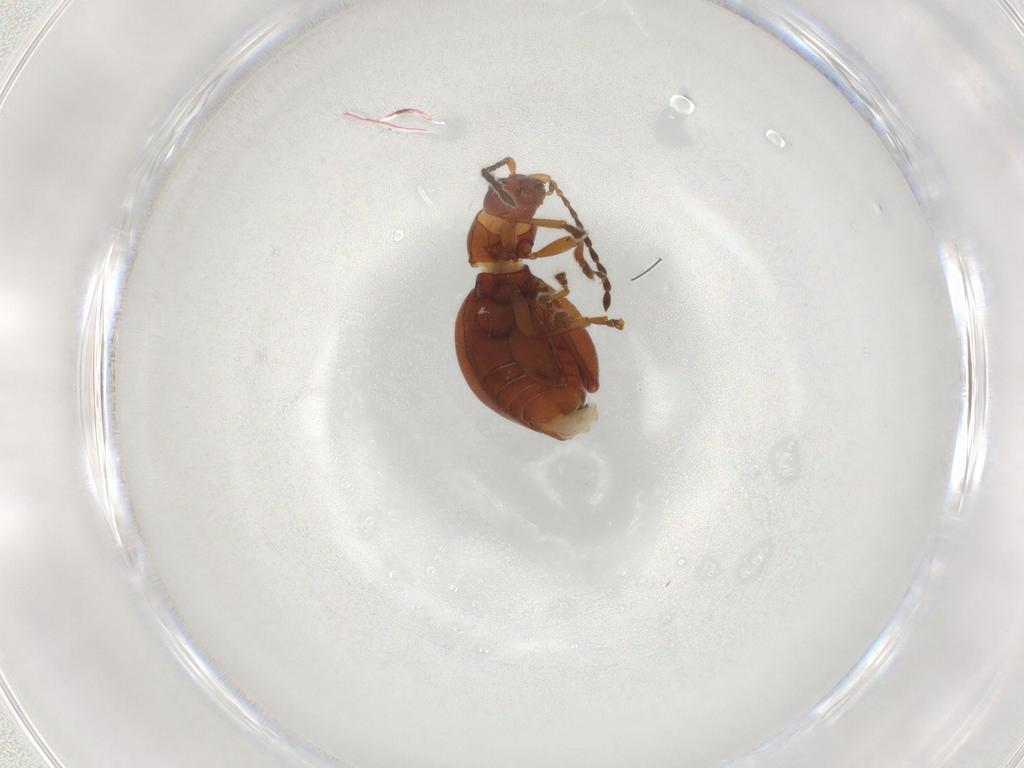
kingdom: Animalia
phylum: Arthropoda
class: Insecta
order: Coleoptera
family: Chrysomelidae
